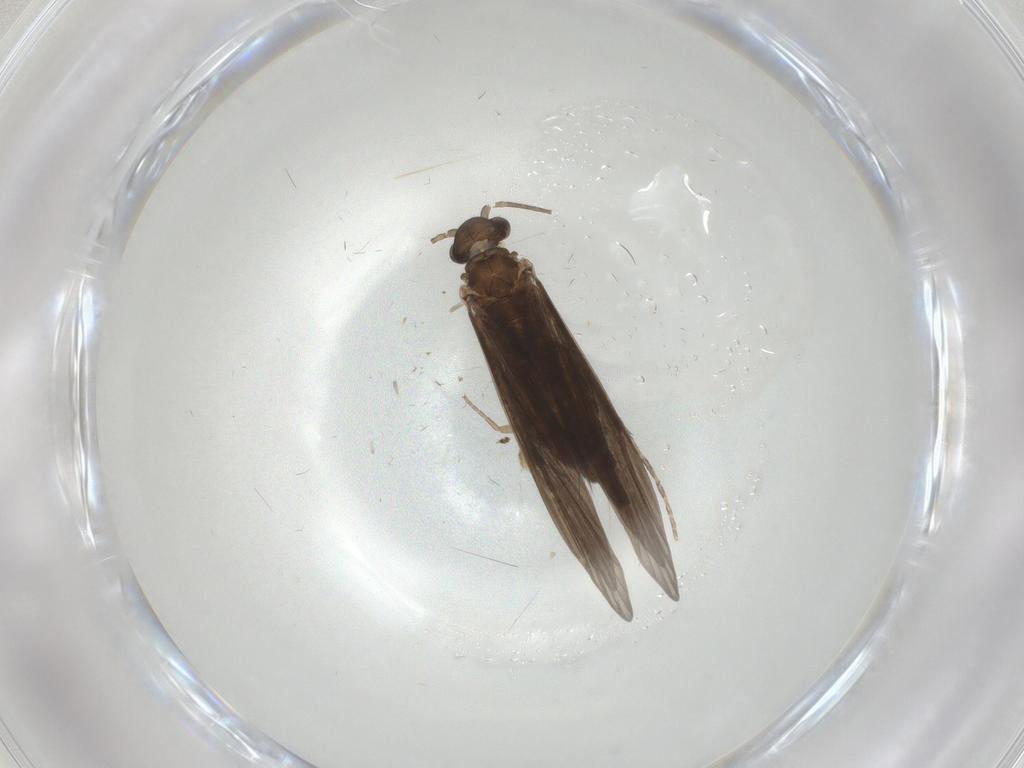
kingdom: Animalia
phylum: Arthropoda
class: Insecta
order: Trichoptera
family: Xiphocentronidae
